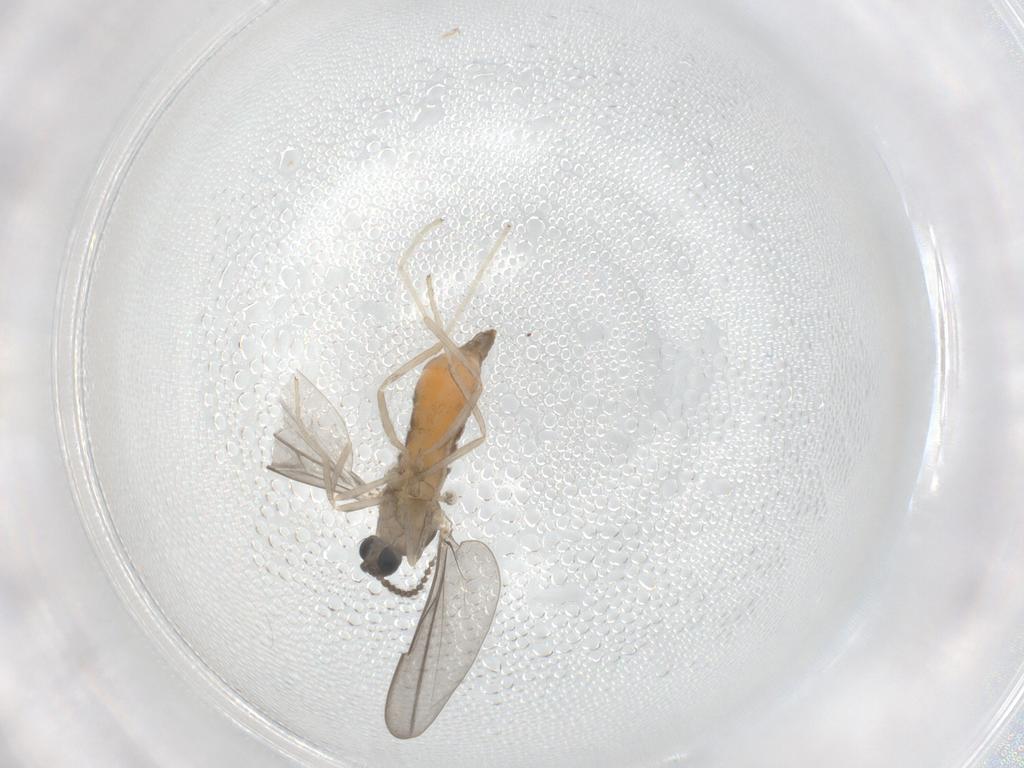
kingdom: Animalia
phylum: Arthropoda
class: Insecta
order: Diptera
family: Cecidomyiidae
